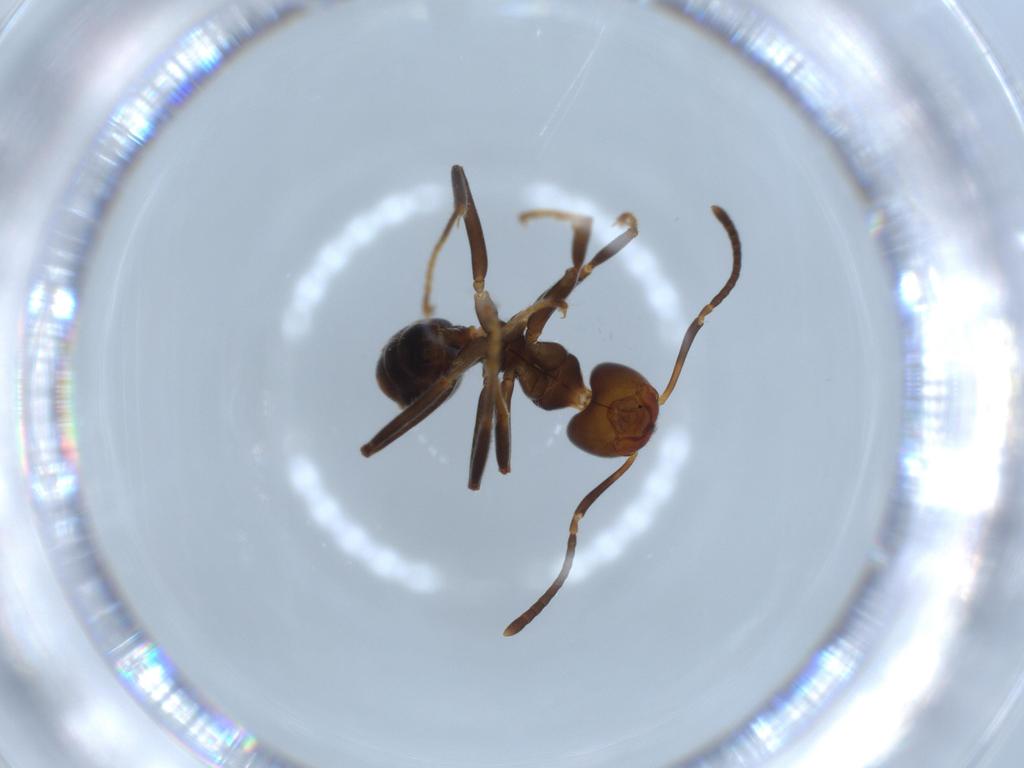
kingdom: Animalia
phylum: Arthropoda
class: Insecta
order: Hymenoptera
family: Formicidae
